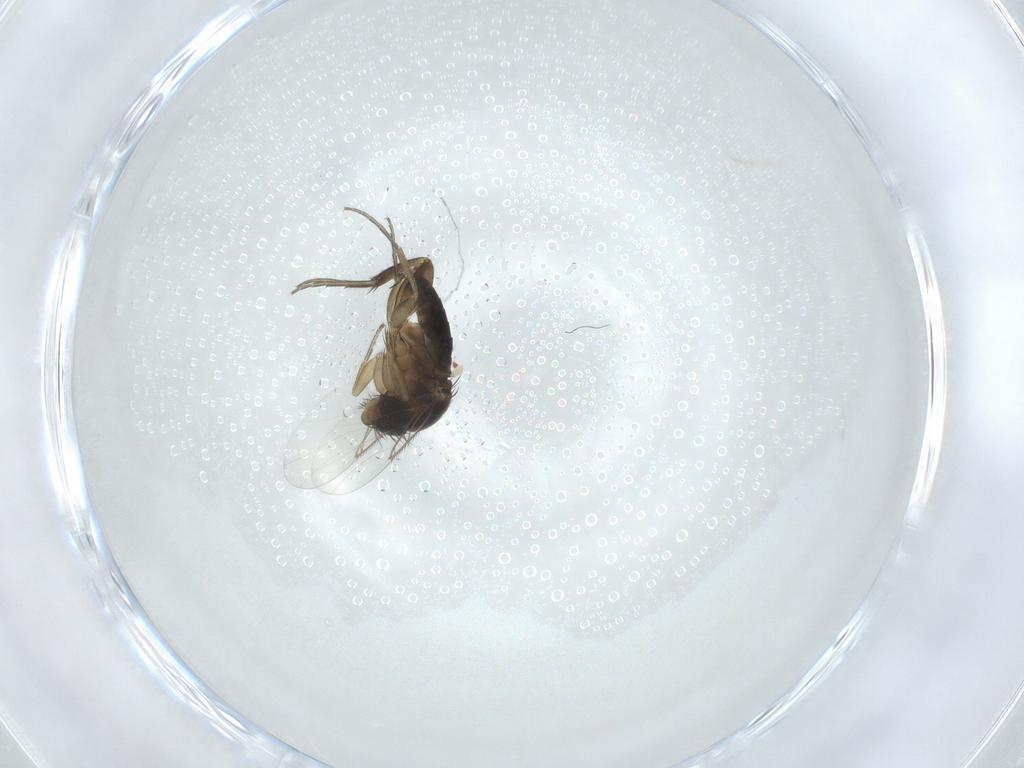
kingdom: Animalia
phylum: Arthropoda
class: Insecta
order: Diptera
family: Phoridae
